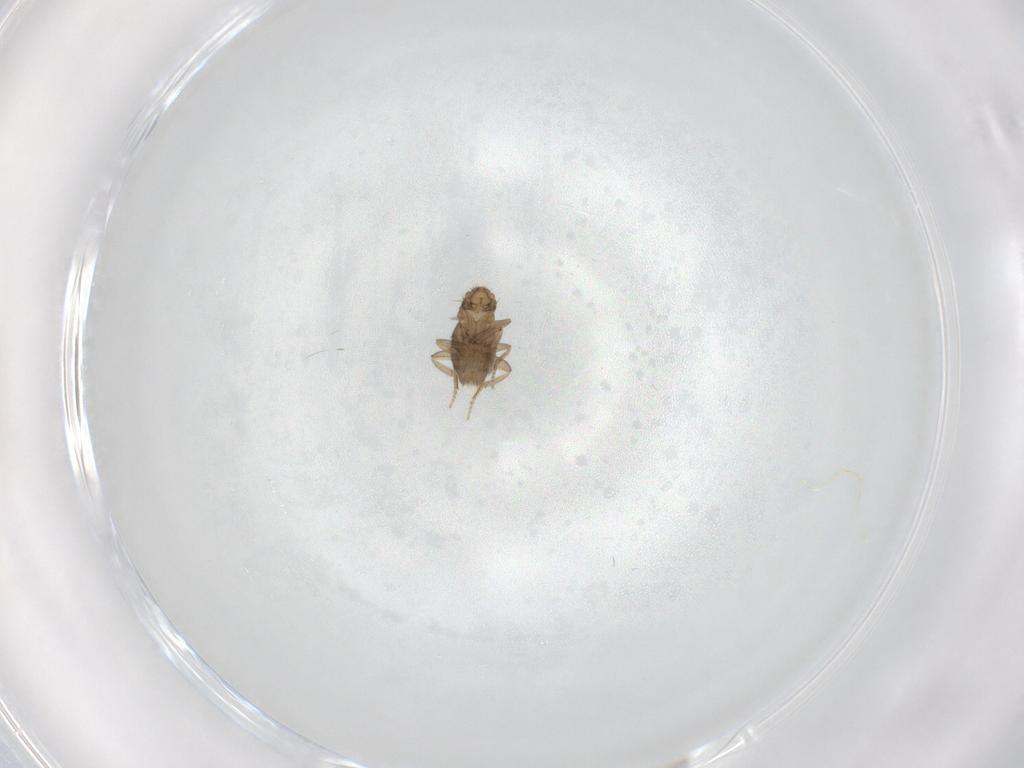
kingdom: Animalia
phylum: Arthropoda
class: Insecta
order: Diptera
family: Phoridae
